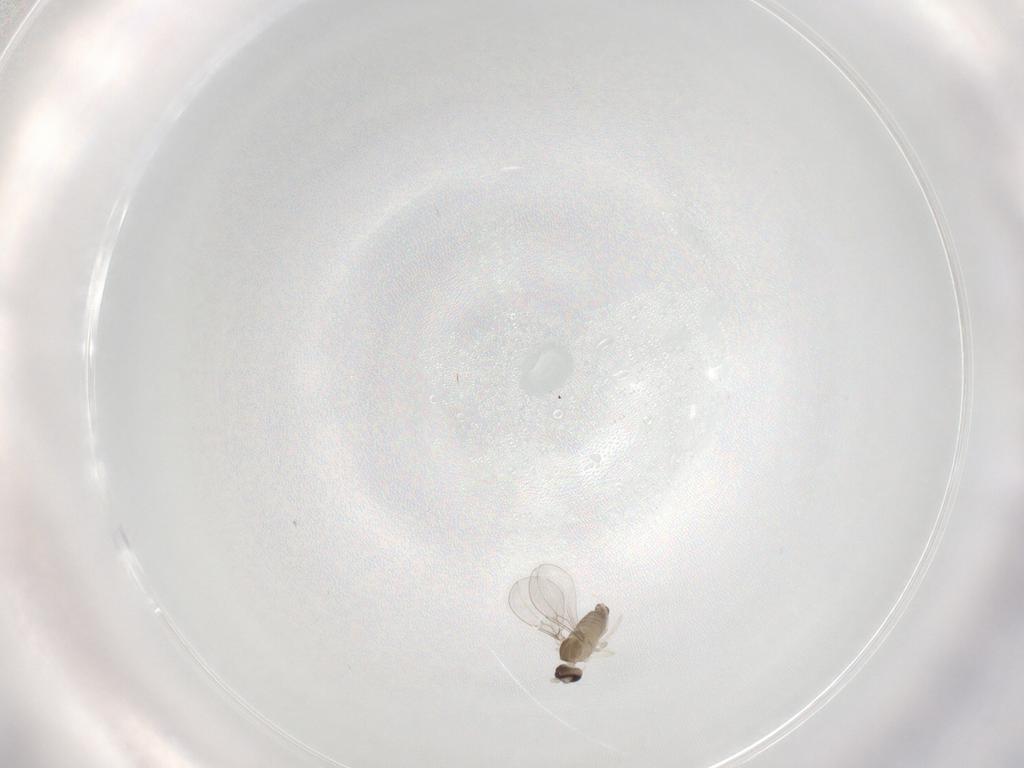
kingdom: Animalia
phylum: Arthropoda
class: Insecta
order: Diptera
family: Cecidomyiidae
